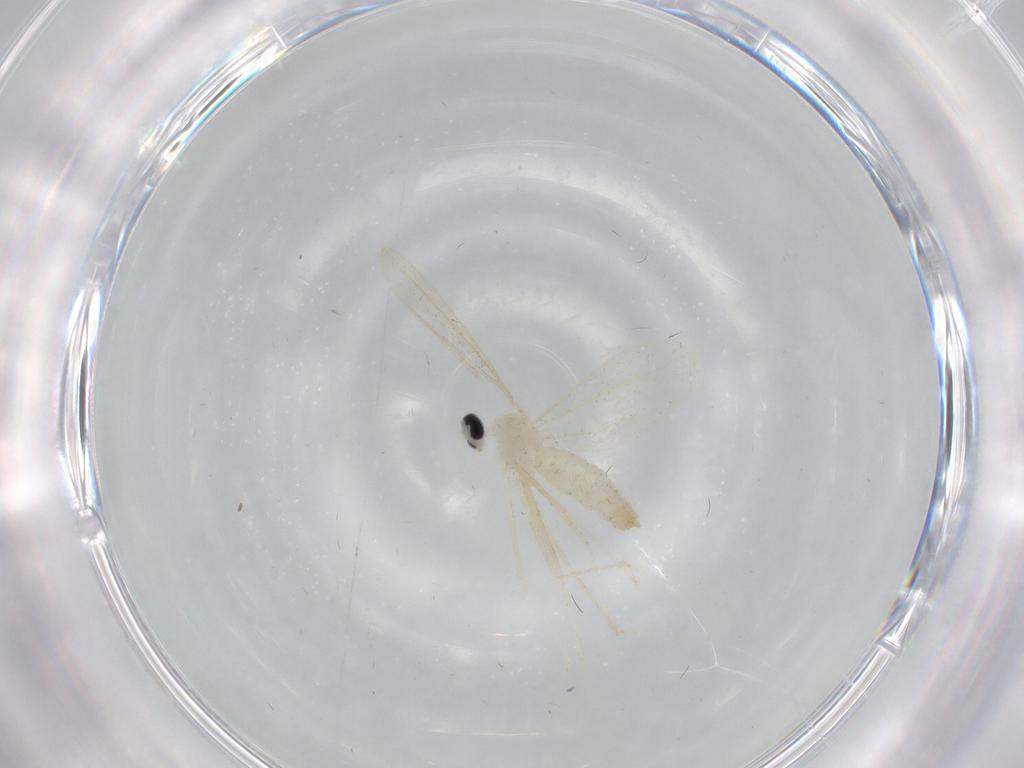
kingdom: Animalia
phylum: Arthropoda
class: Insecta
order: Diptera
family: Cecidomyiidae
